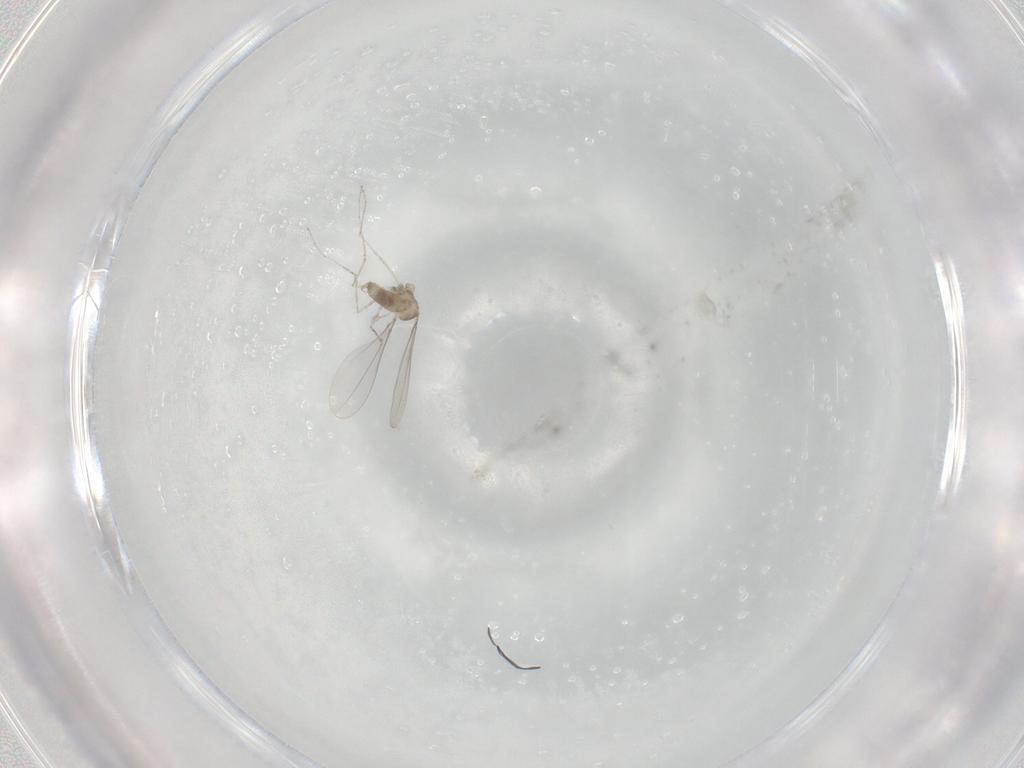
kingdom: Animalia
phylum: Arthropoda
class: Insecta
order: Diptera
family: Cecidomyiidae
